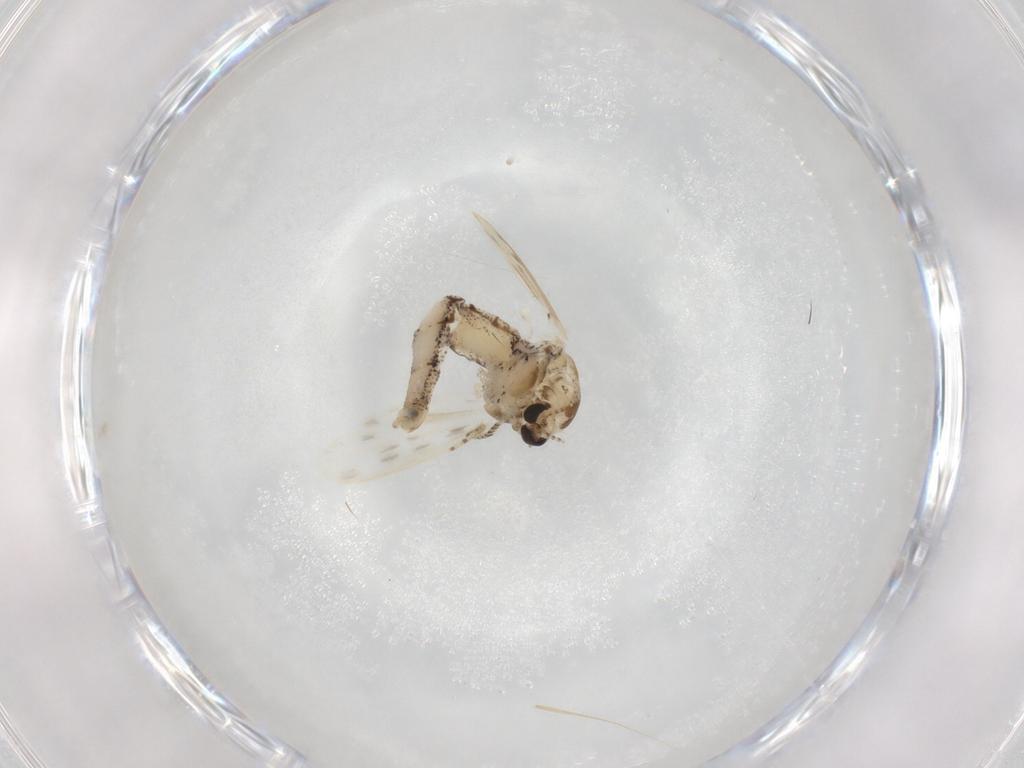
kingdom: Animalia
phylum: Arthropoda
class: Insecta
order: Diptera
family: Chaoboridae
